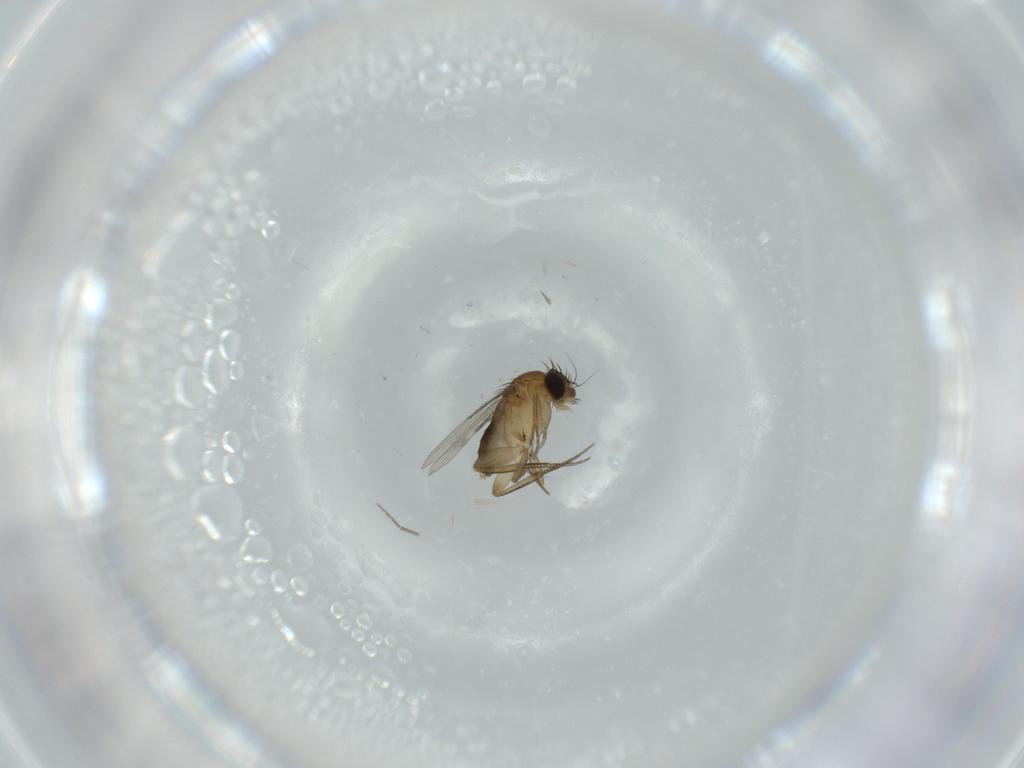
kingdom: Animalia
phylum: Arthropoda
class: Insecta
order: Diptera
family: Phoridae
